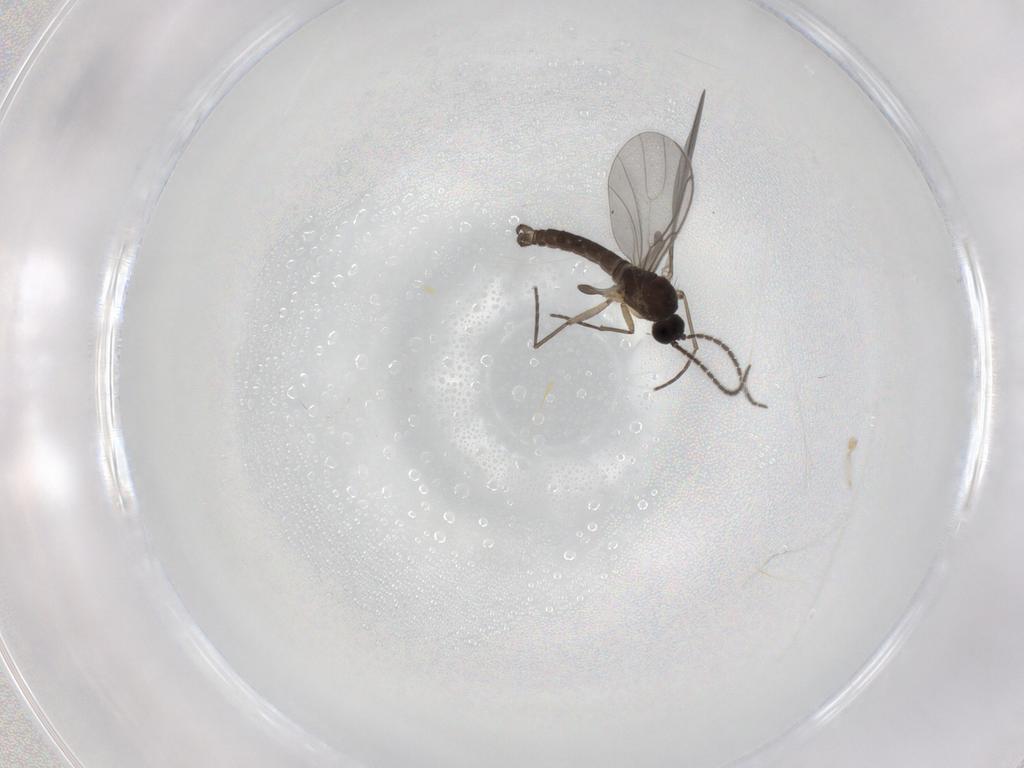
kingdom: Animalia
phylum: Arthropoda
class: Insecta
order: Diptera
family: Sciaridae
